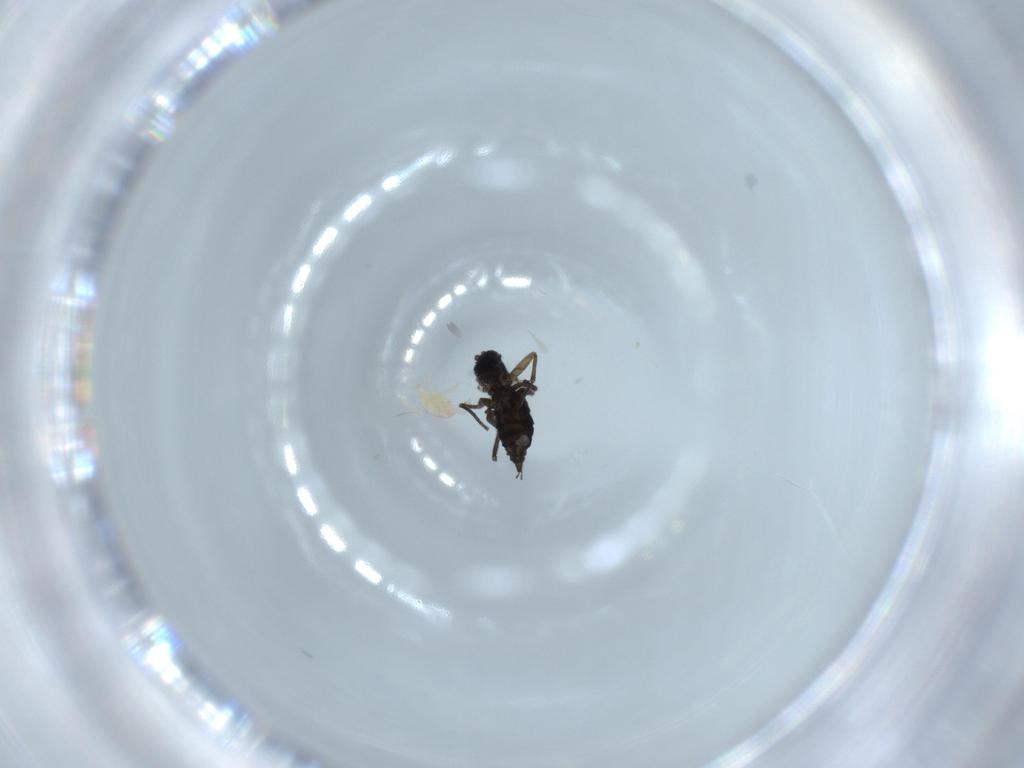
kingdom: Animalia
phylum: Arthropoda
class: Insecta
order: Diptera
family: Sciaridae
